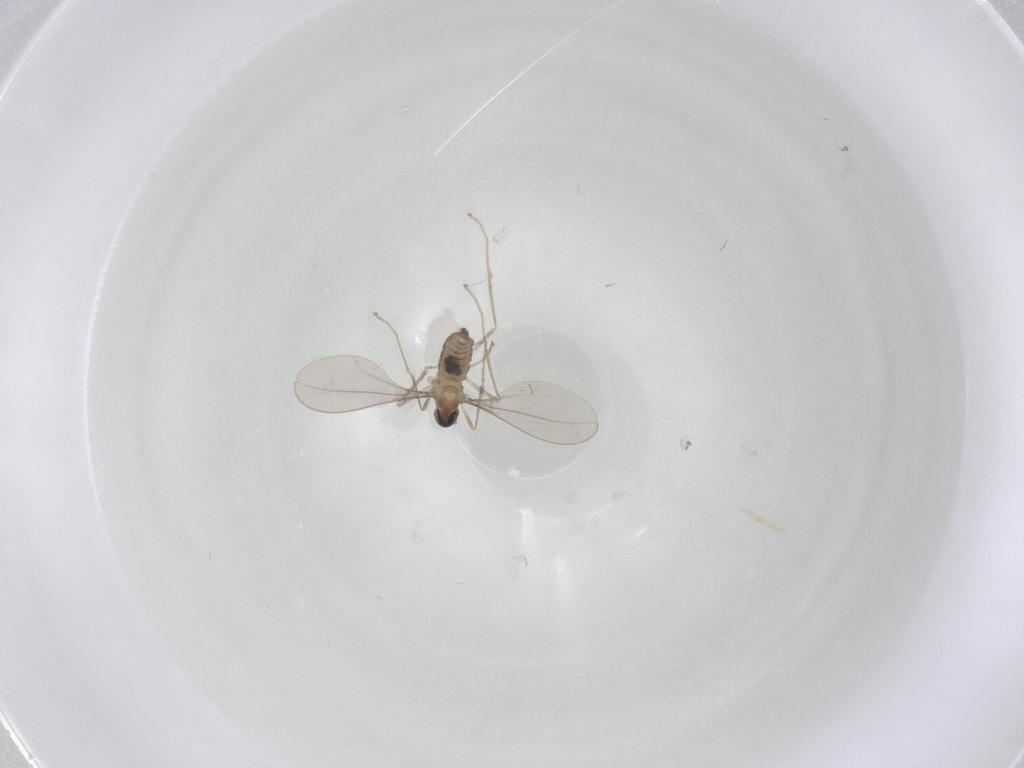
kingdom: Animalia
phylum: Arthropoda
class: Insecta
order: Diptera
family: Cecidomyiidae
